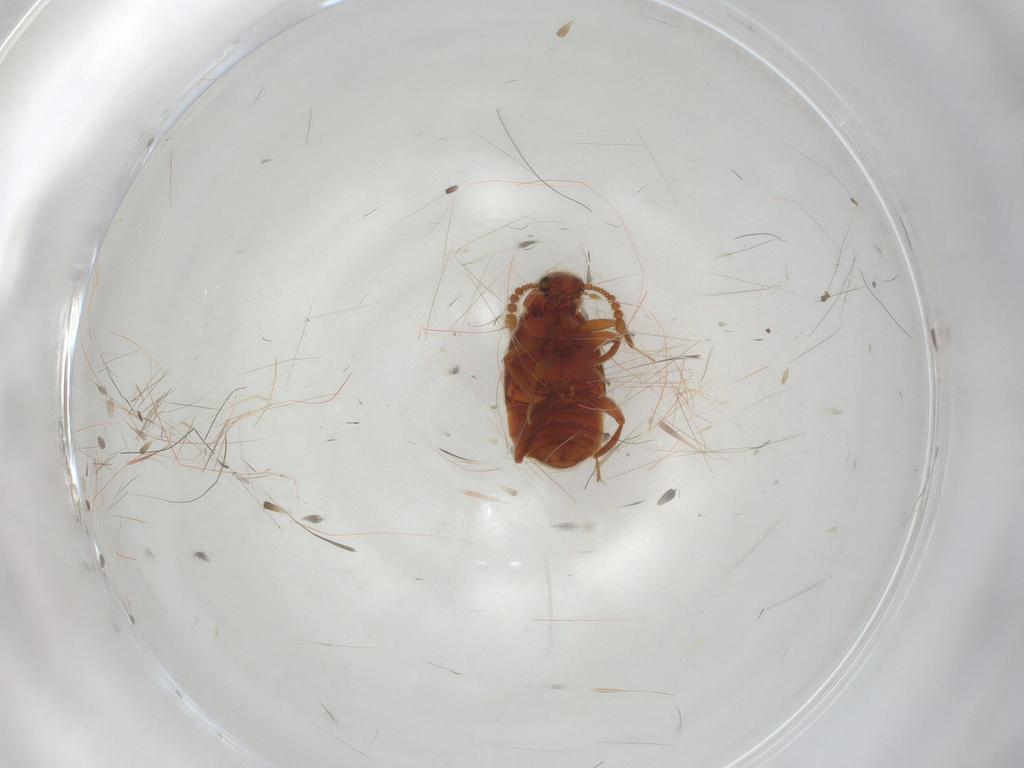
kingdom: Animalia
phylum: Arthropoda
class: Insecta
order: Coleoptera
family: Staphylinidae
